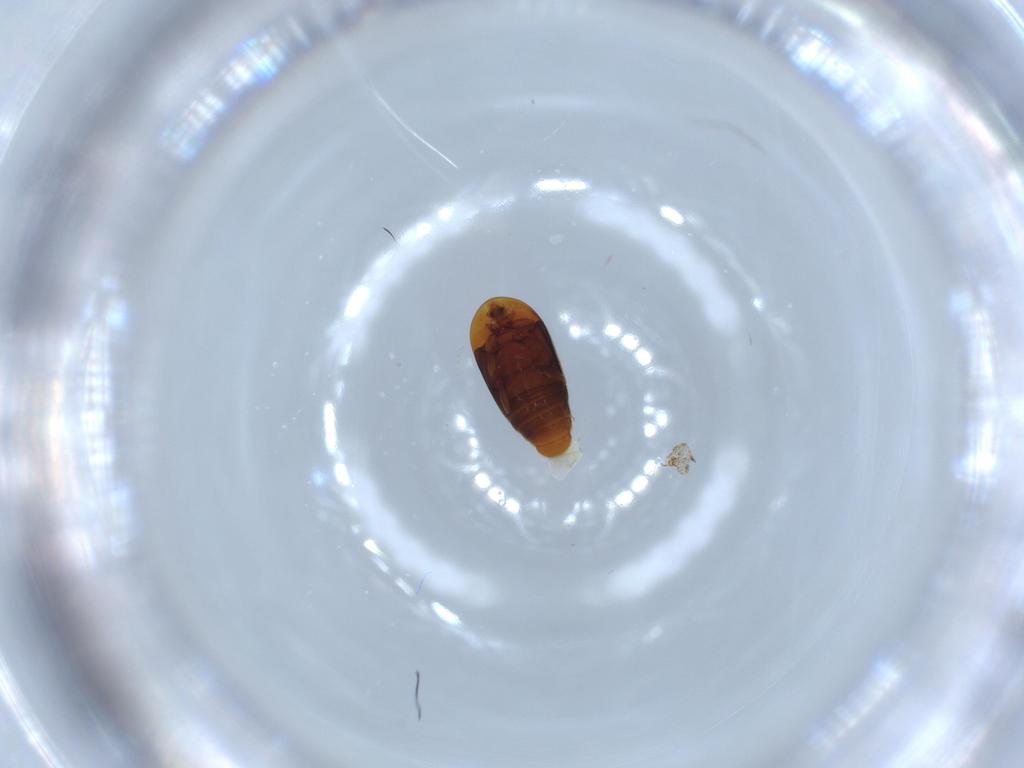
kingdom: Animalia
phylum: Arthropoda
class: Insecta
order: Coleoptera
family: Corylophidae
